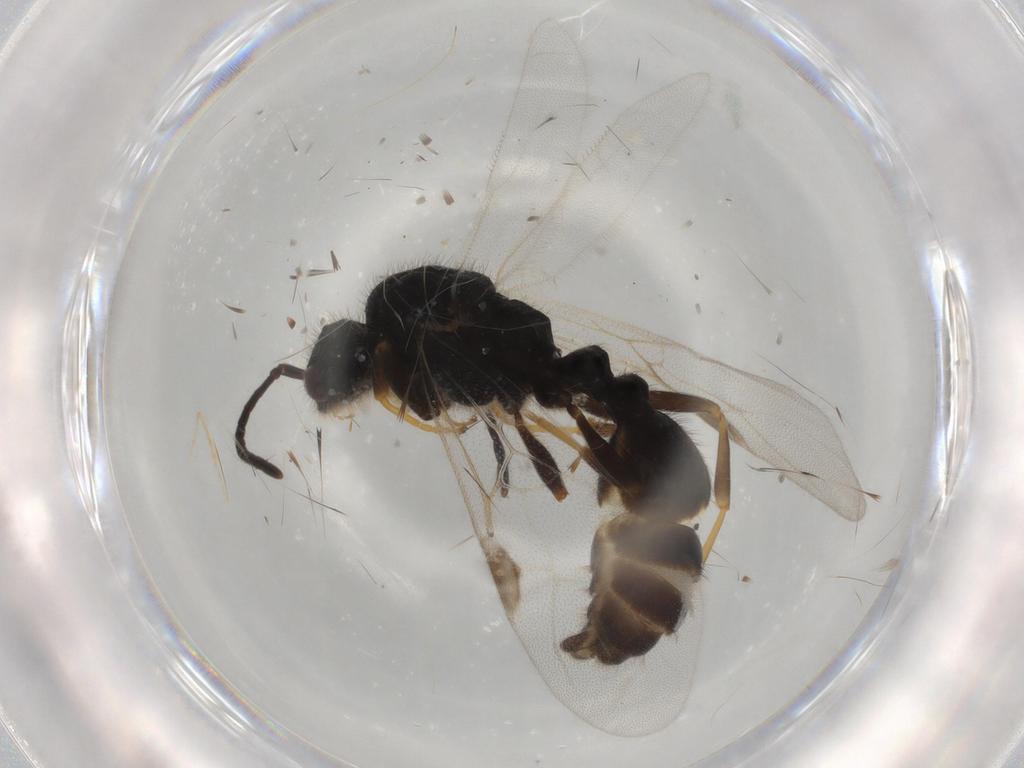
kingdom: Animalia
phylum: Arthropoda
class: Insecta
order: Hymenoptera
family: Formicidae
